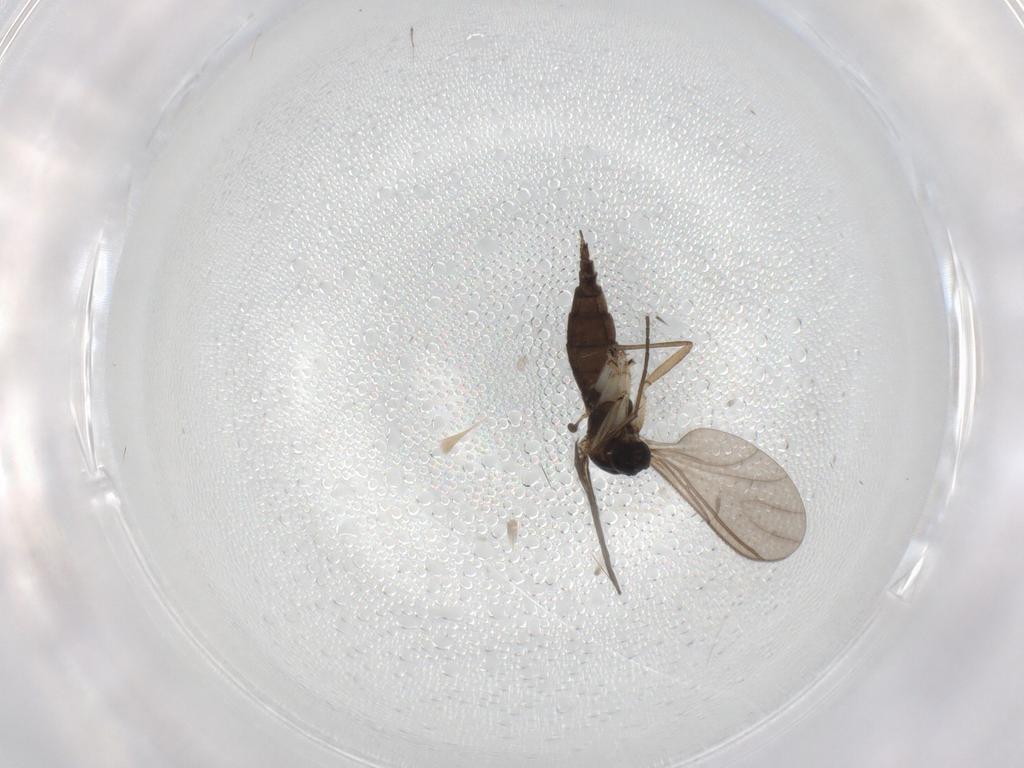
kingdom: Animalia
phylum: Arthropoda
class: Insecta
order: Diptera
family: Sciaridae
